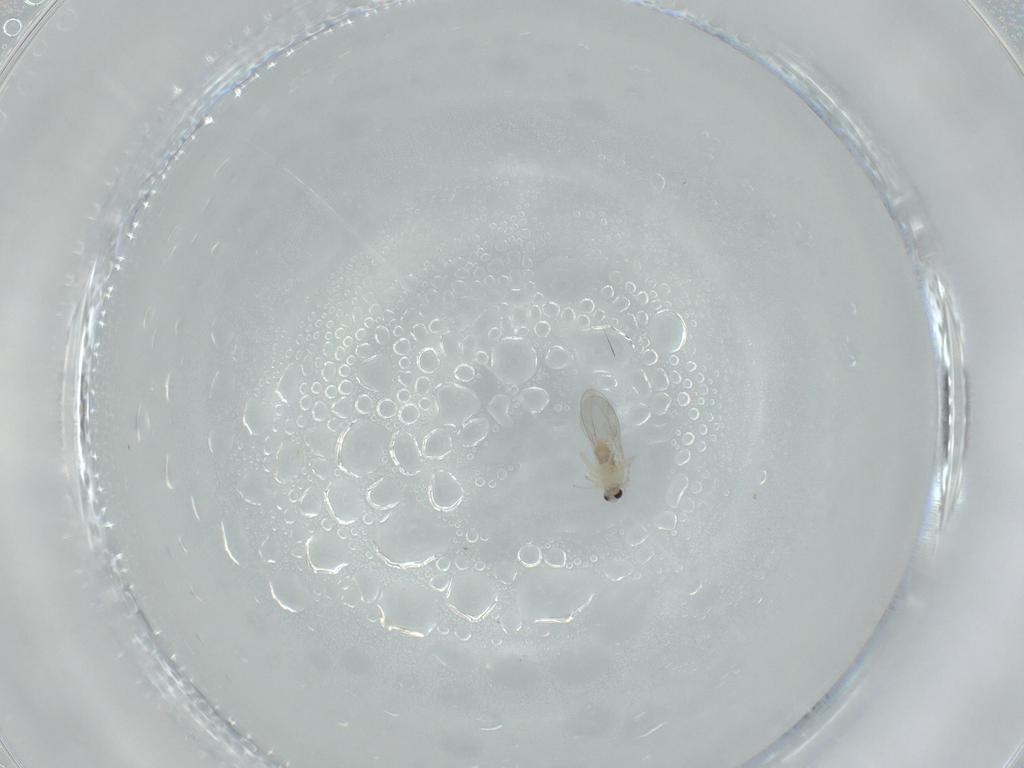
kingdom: Animalia
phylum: Arthropoda
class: Insecta
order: Diptera
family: Cecidomyiidae
